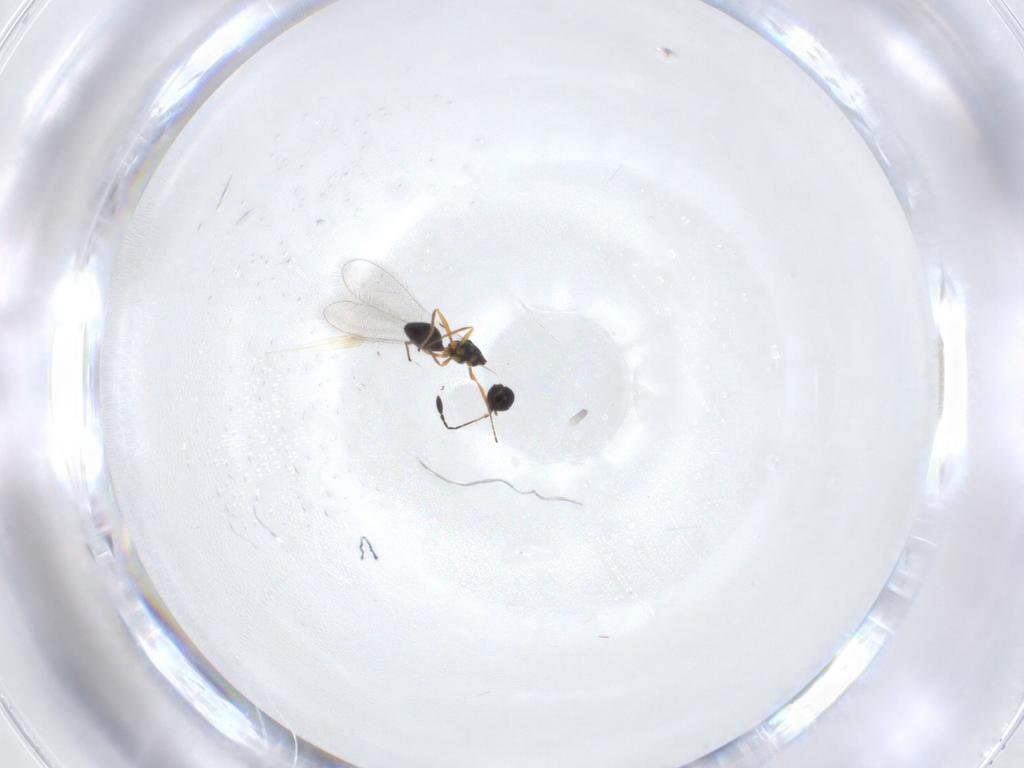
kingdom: Animalia
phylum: Arthropoda
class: Insecta
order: Hymenoptera
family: Mymaridae
